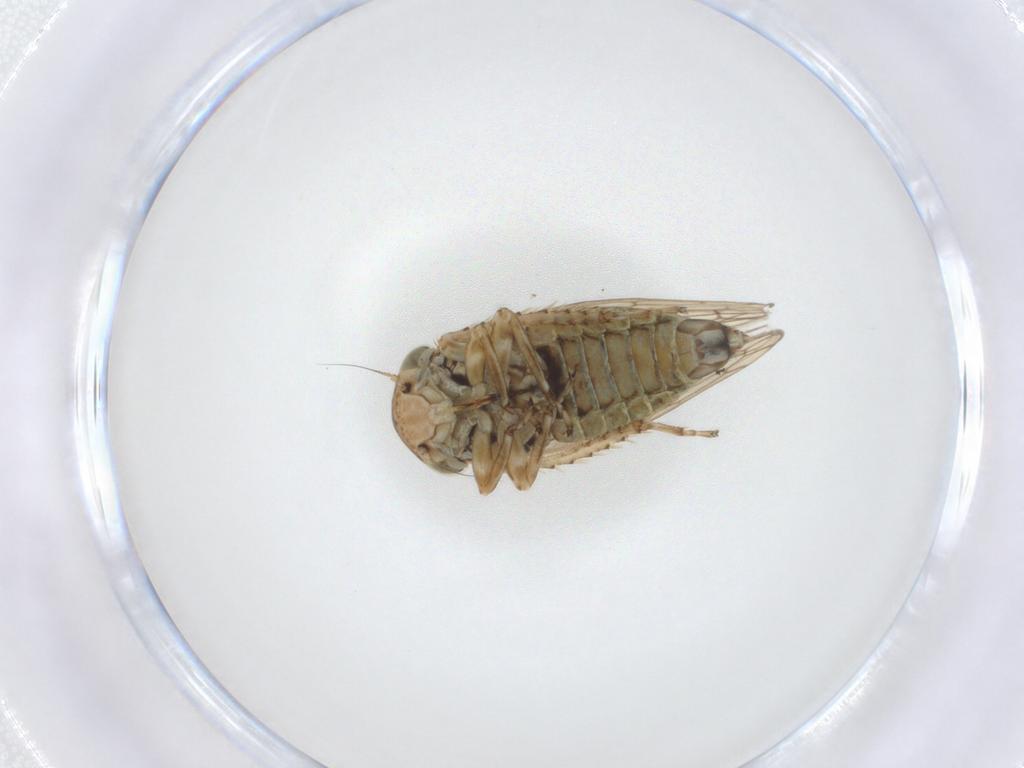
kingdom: Animalia
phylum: Arthropoda
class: Insecta
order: Hemiptera
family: Cicadellidae
